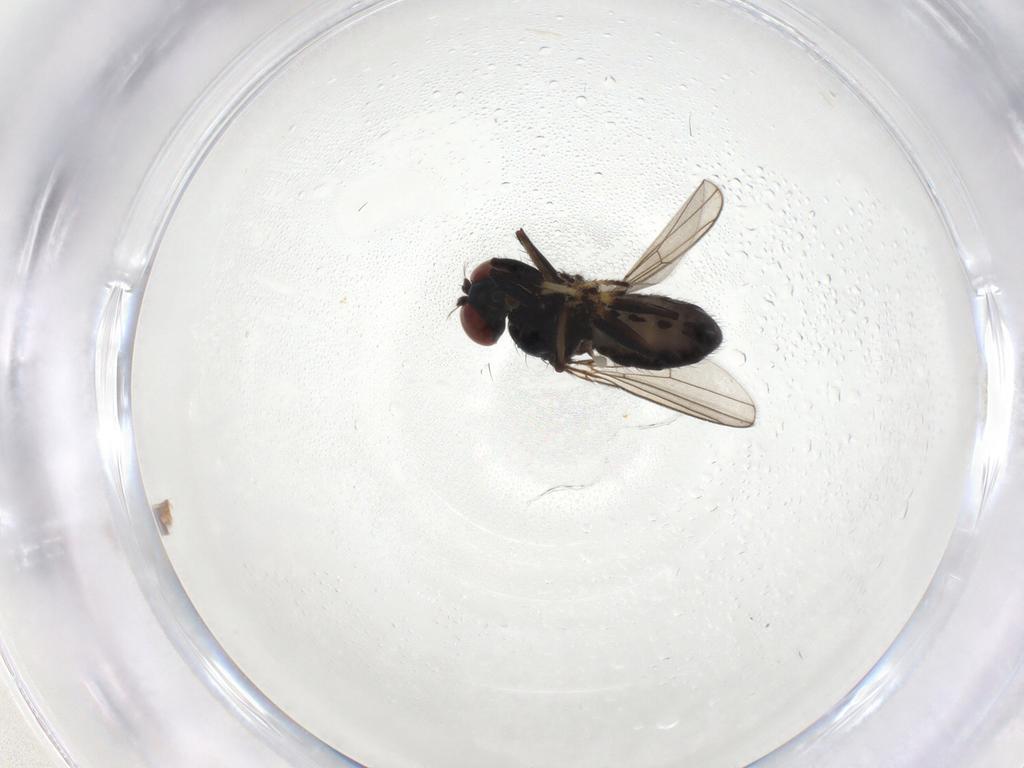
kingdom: Animalia
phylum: Arthropoda
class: Insecta
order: Diptera
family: Ephydridae
